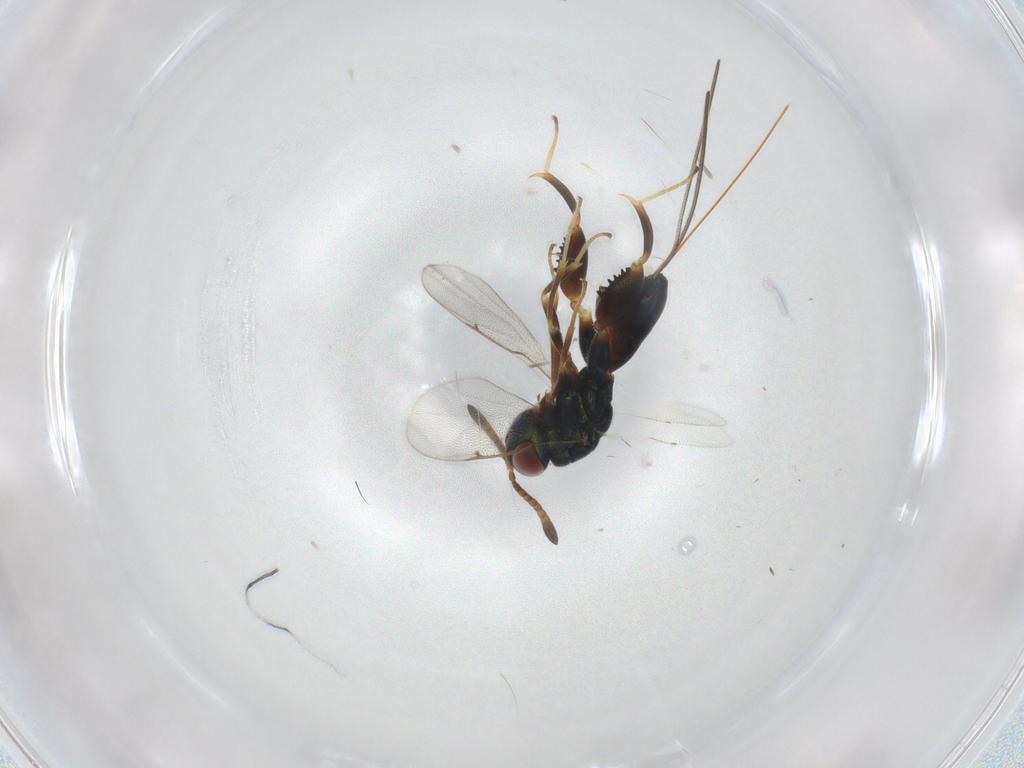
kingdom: Animalia
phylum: Arthropoda
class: Insecta
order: Hymenoptera
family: Torymidae
